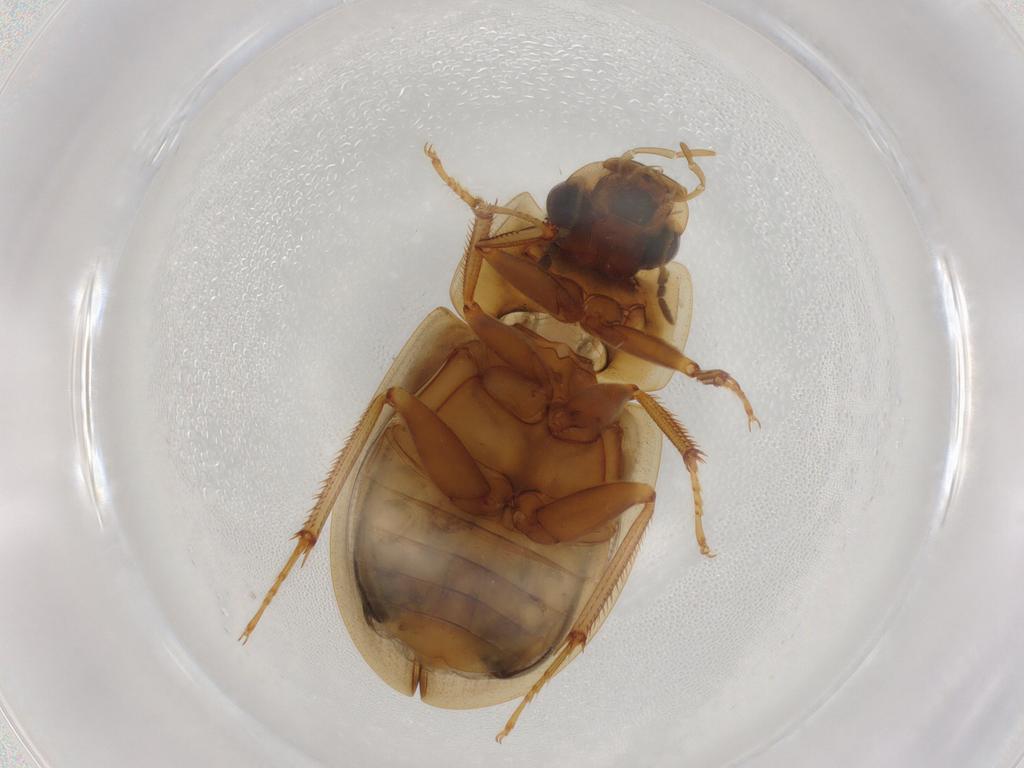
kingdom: Animalia
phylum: Arthropoda
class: Insecta
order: Coleoptera
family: Hydrophilidae
